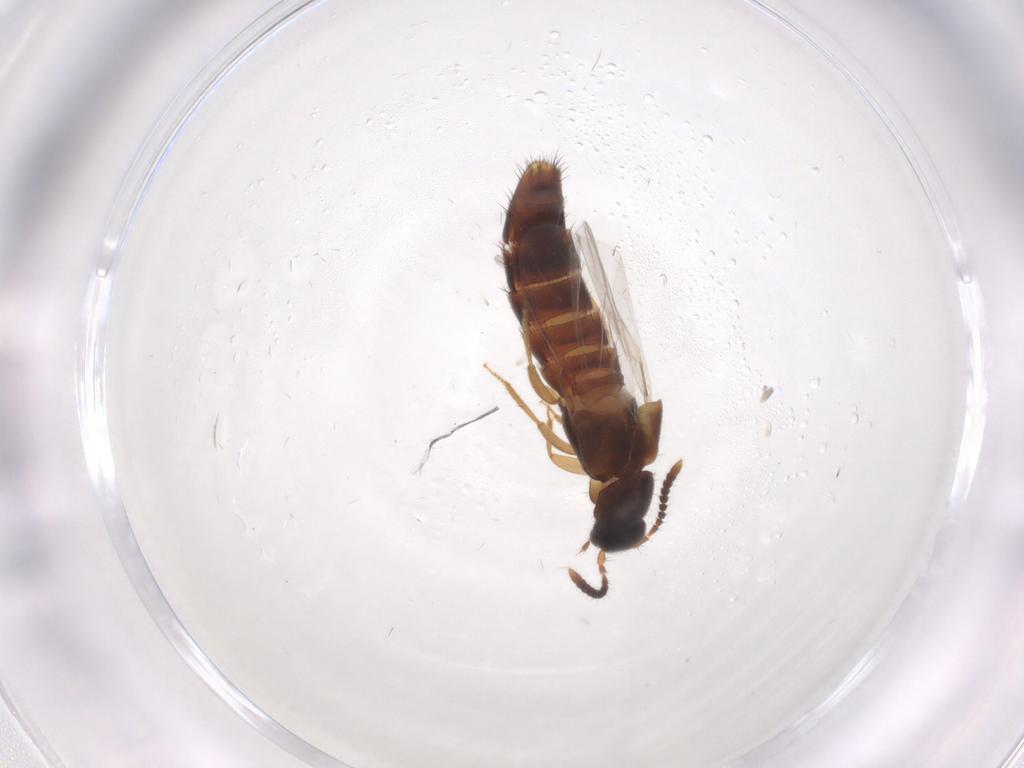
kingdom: Animalia
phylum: Arthropoda
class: Insecta
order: Coleoptera
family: Staphylinidae
